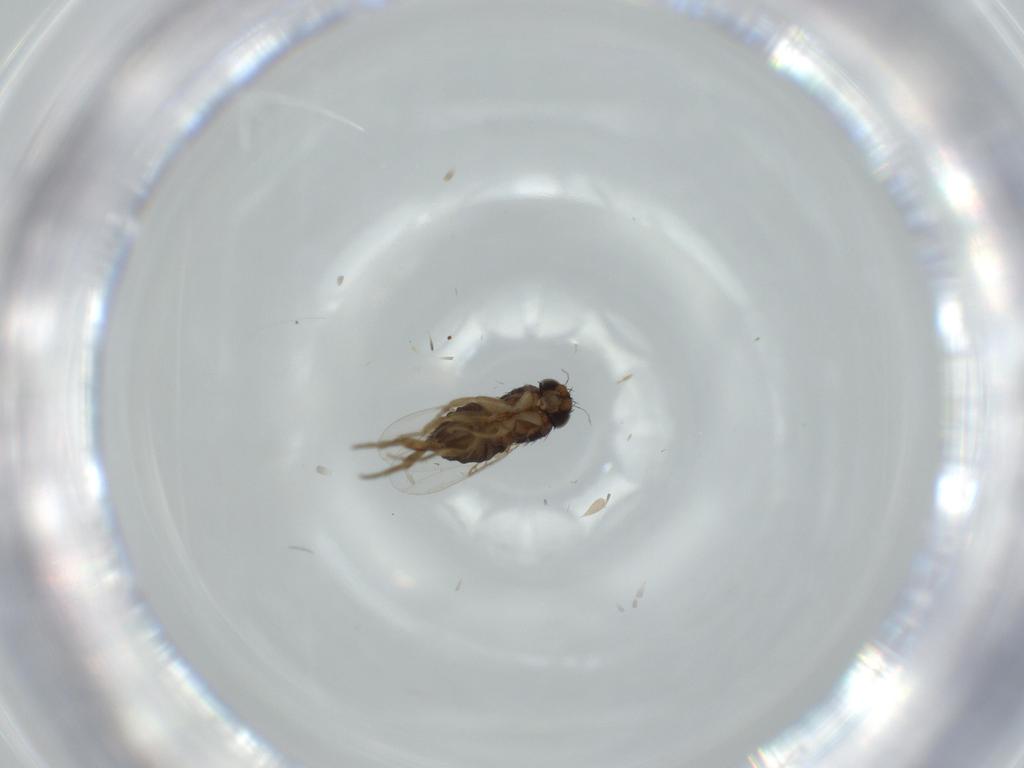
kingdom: Animalia
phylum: Arthropoda
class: Insecta
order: Diptera
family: Phoridae
